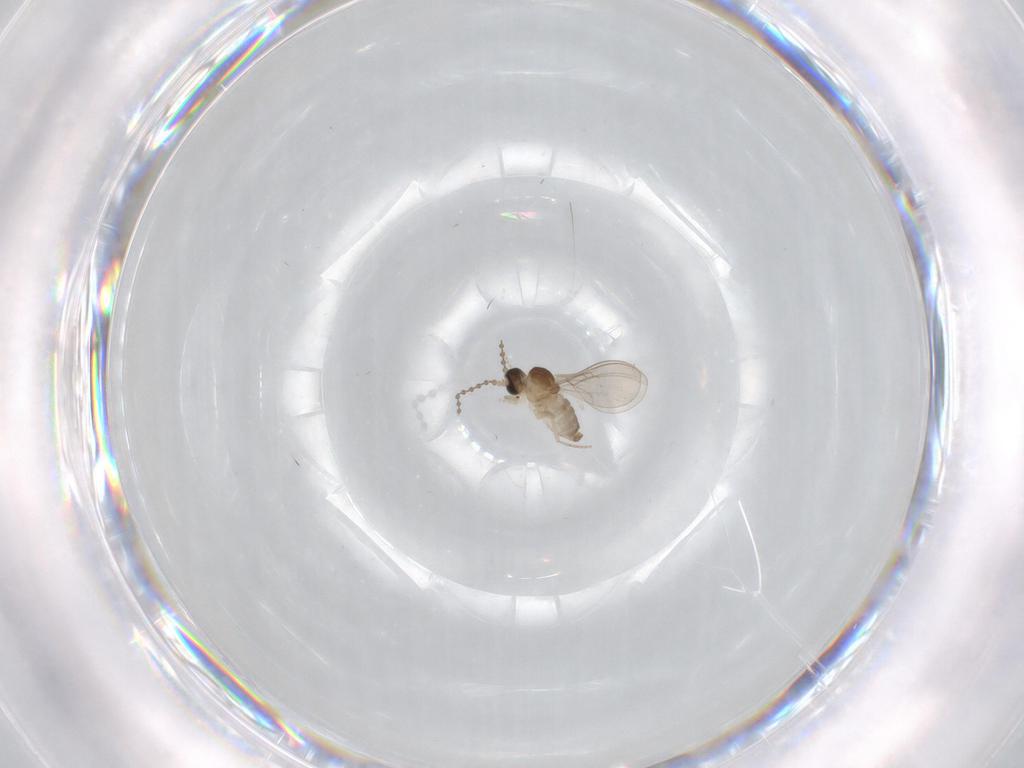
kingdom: Animalia
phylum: Arthropoda
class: Insecta
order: Diptera
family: Cecidomyiidae
